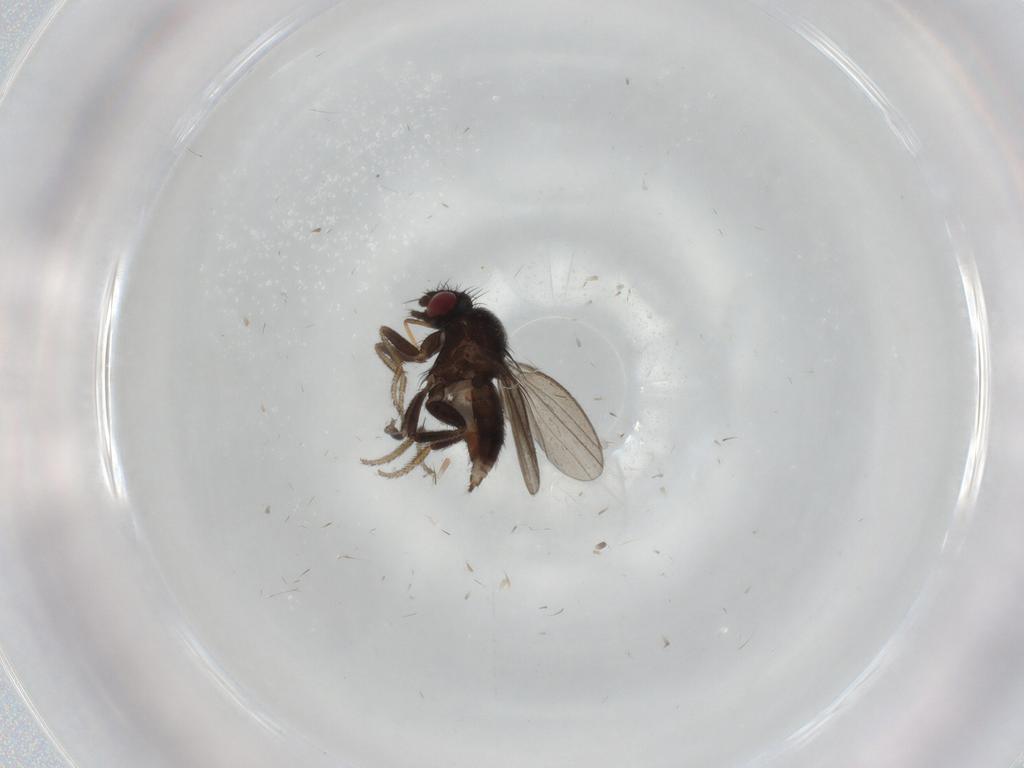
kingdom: Animalia
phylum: Arthropoda
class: Insecta
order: Diptera
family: Milichiidae
